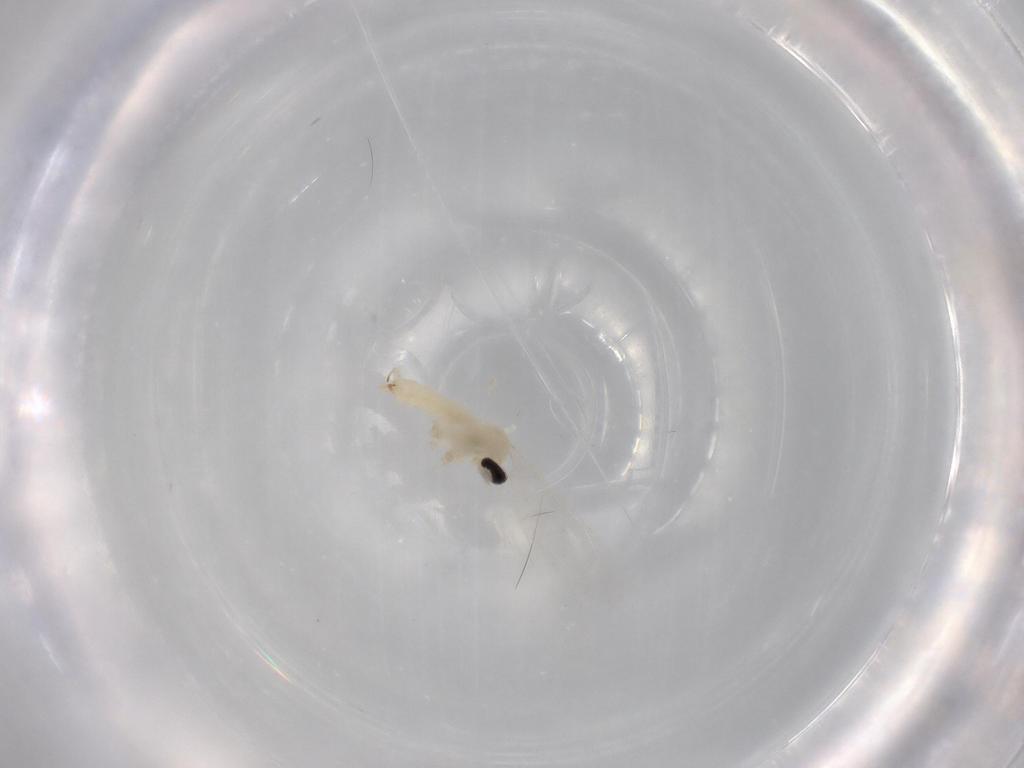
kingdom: Animalia
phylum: Arthropoda
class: Insecta
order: Diptera
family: Cecidomyiidae
